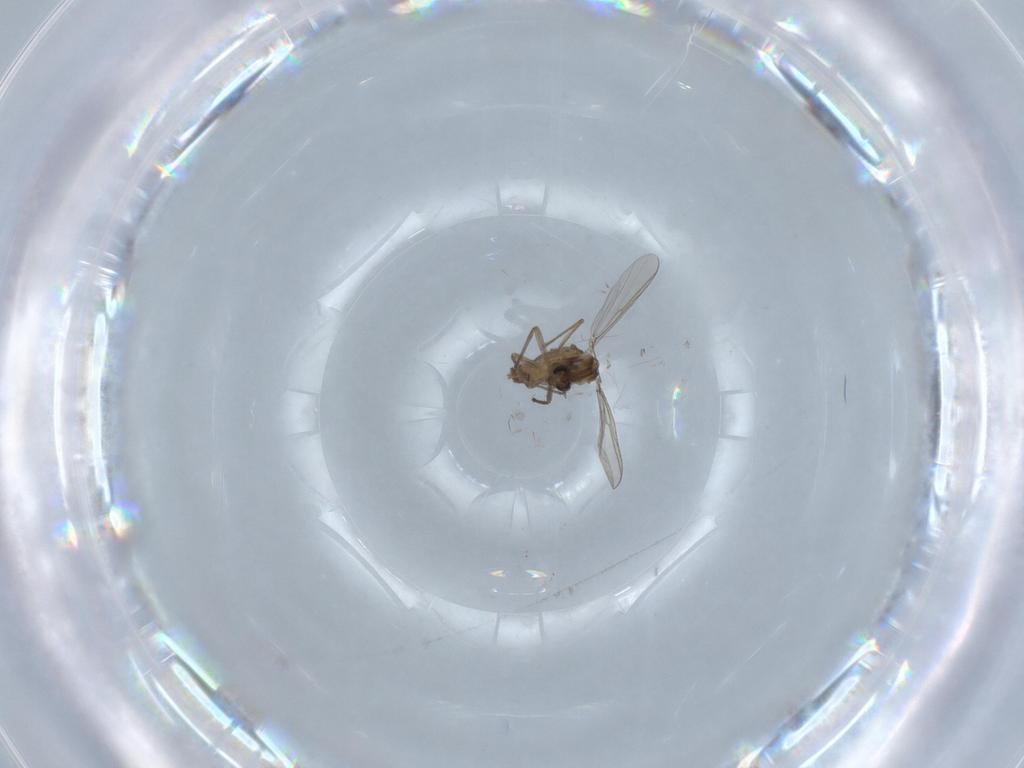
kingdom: Animalia
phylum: Arthropoda
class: Insecta
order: Diptera
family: Chironomidae
